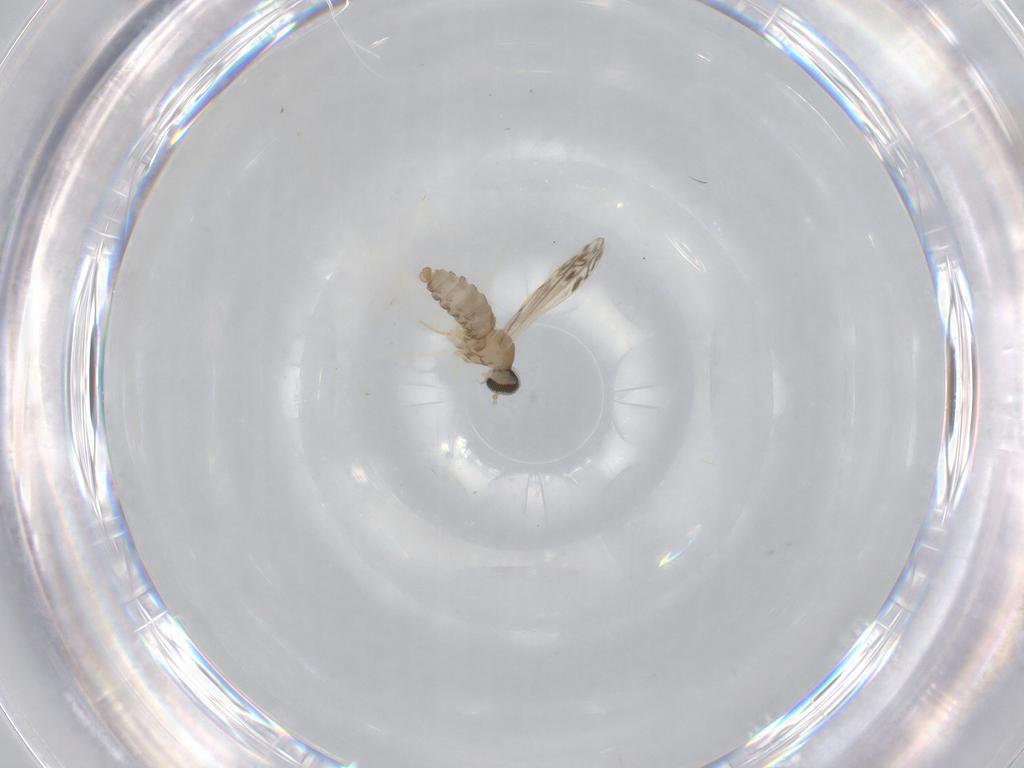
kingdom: Animalia
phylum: Arthropoda
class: Insecta
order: Diptera
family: Cecidomyiidae
